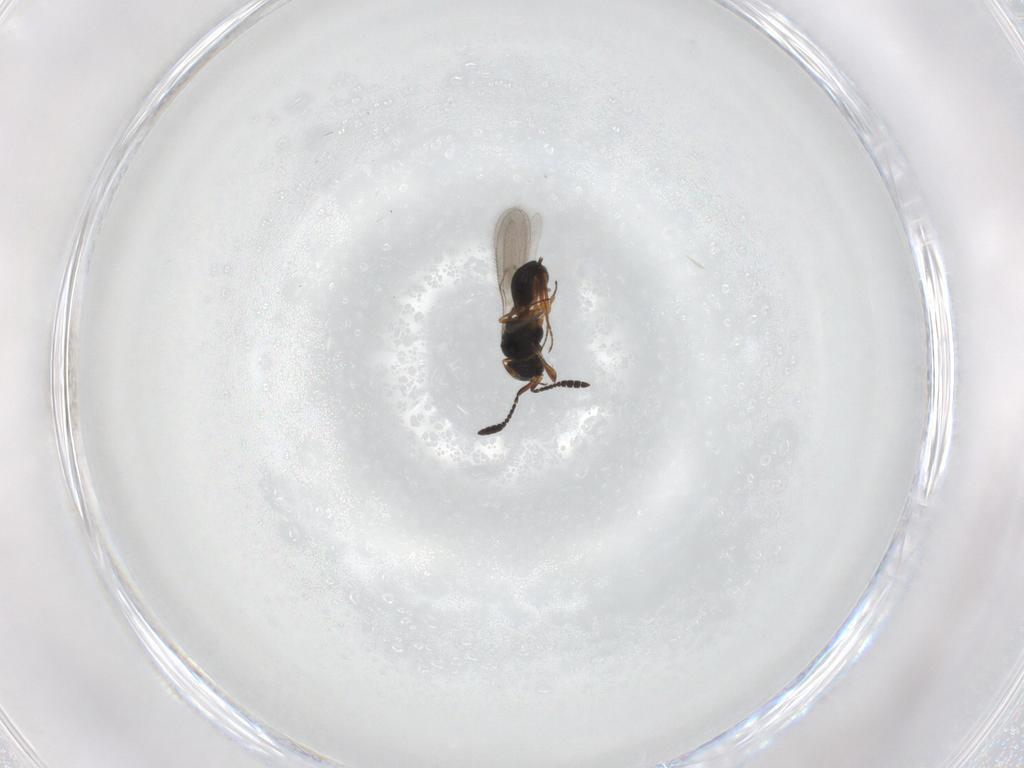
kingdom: Animalia
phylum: Arthropoda
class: Insecta
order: Hymenoptera
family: Scelionidae
